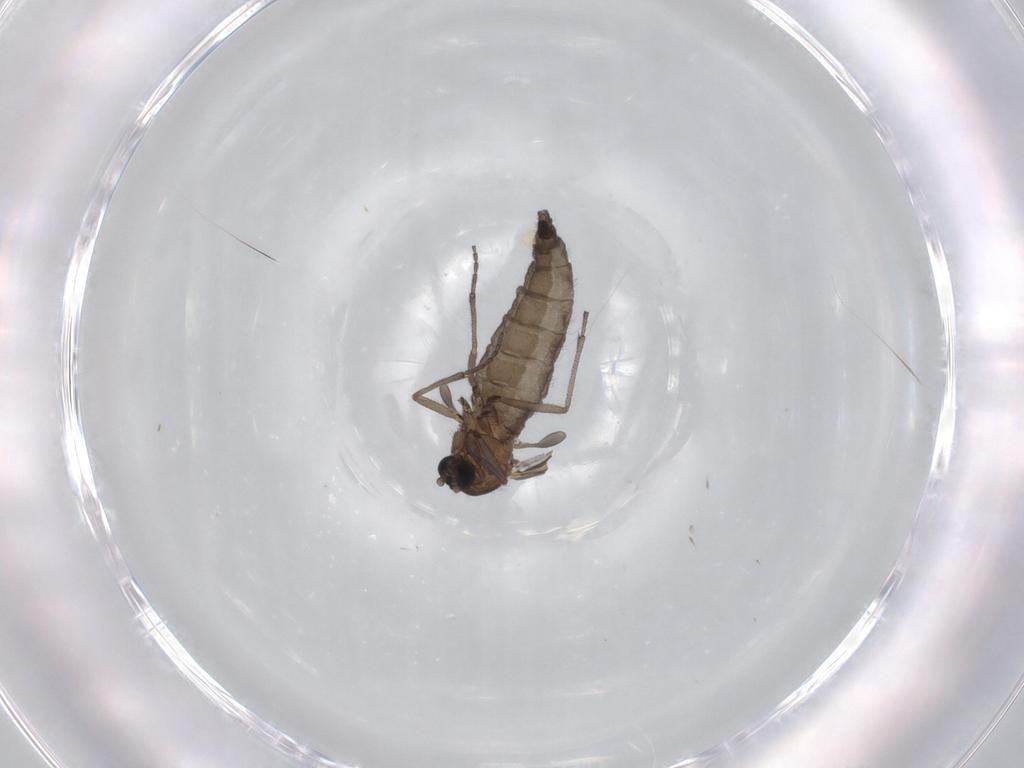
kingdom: Animalia
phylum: Arthropoda
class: Insecta
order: Diptera
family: Sciaridae
